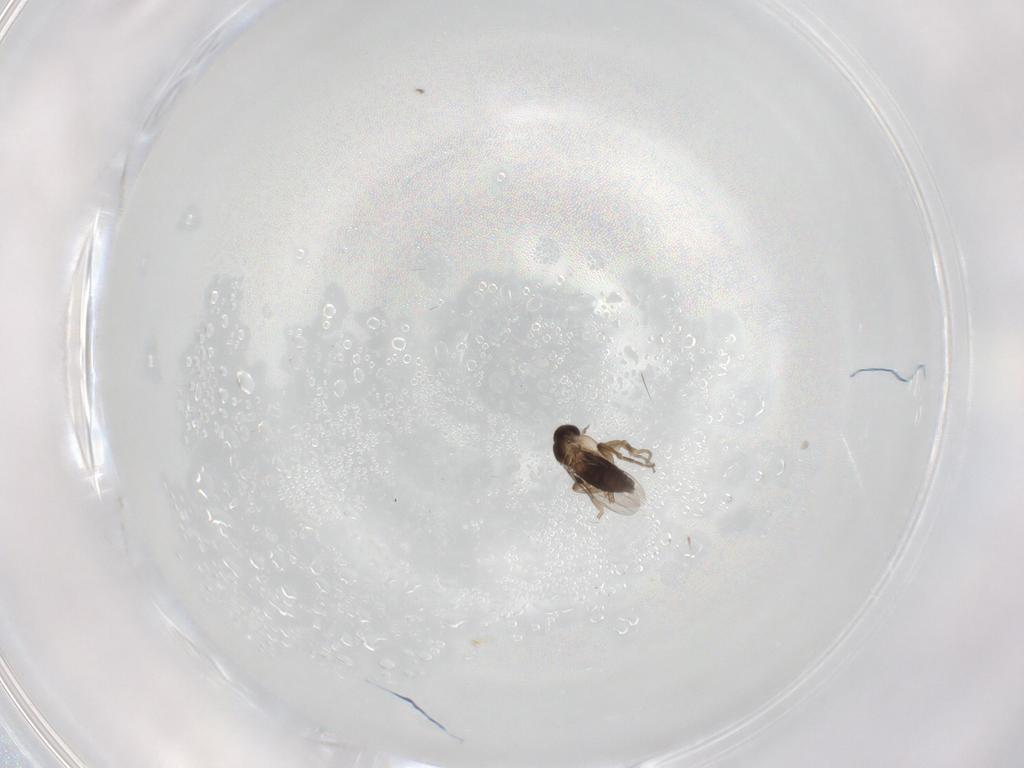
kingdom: Animalia
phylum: Arthropoda
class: Insecta
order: Diptera
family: Phoridae
